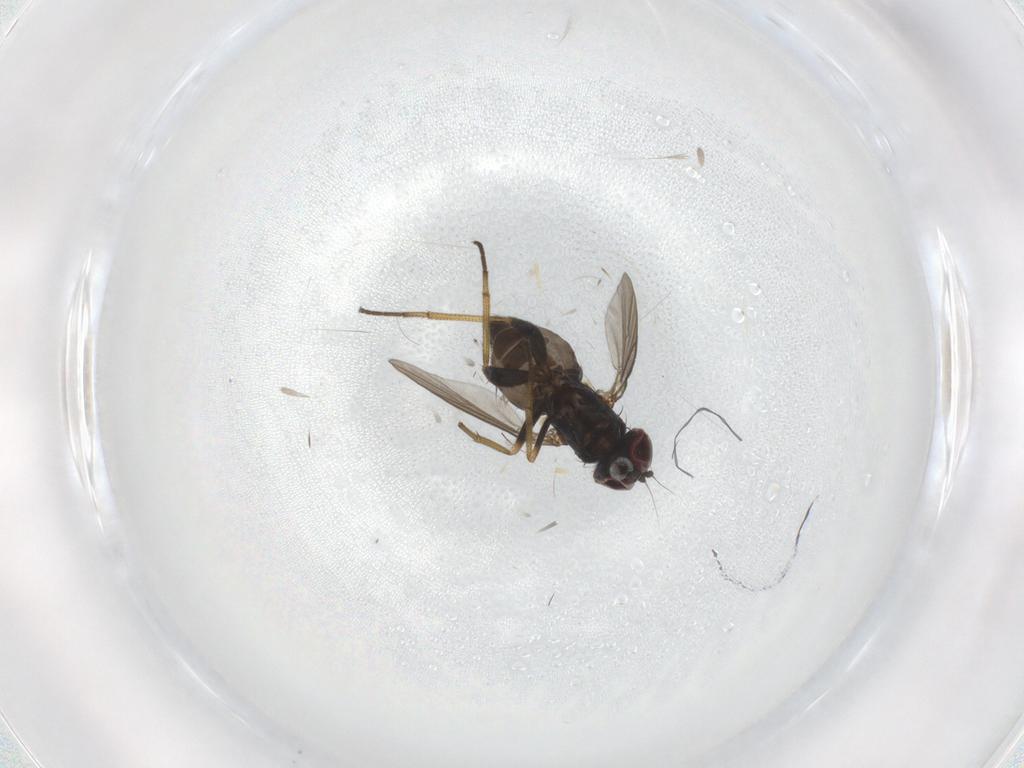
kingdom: Animalia
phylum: Arthropoda
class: Insecta
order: Diptera
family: Dolichopodidae
